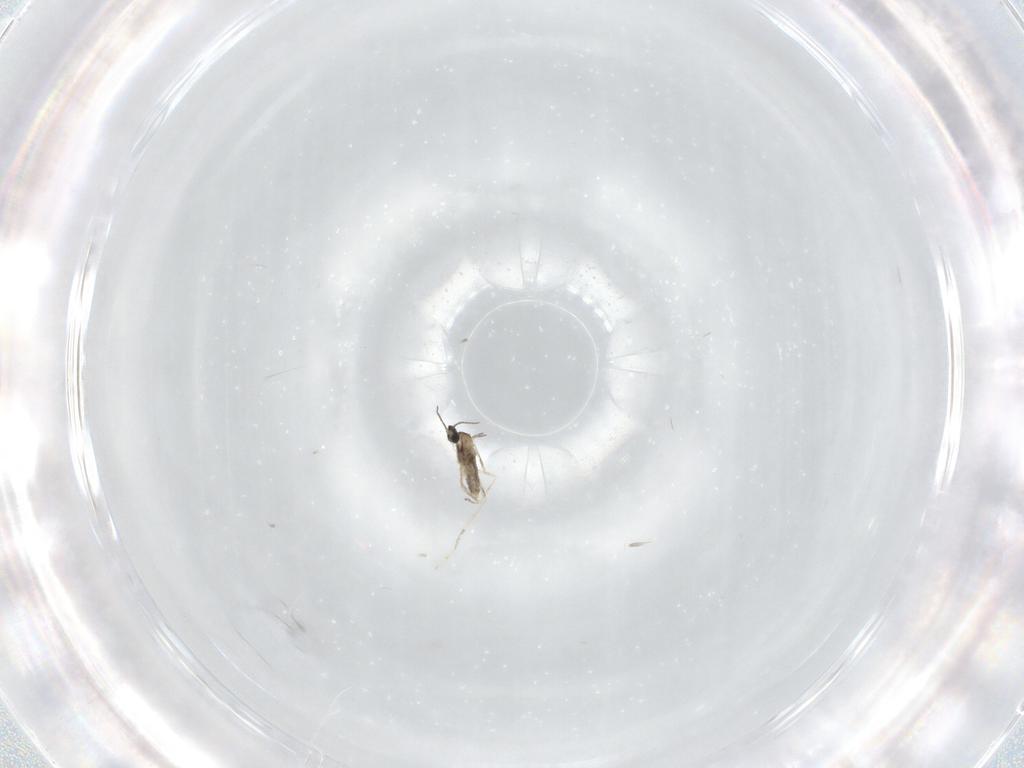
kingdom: Animalia
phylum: Arthropoda
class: Insecta
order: Diptera
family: Cecidomyiidae
